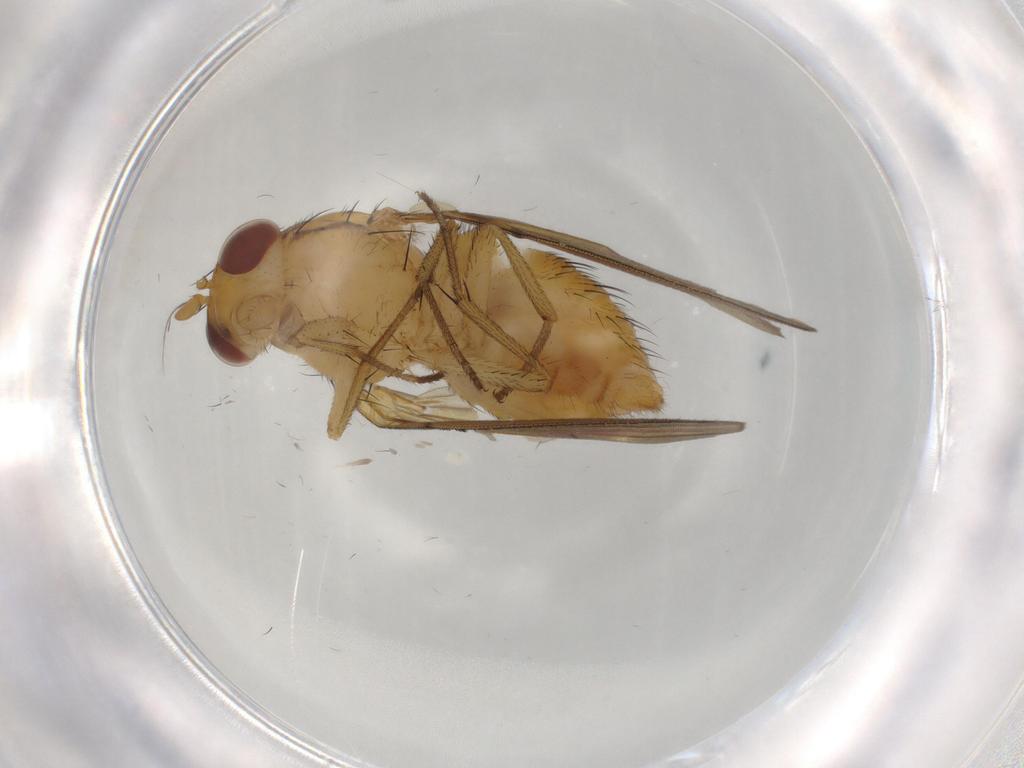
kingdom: Animalia
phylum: Arthropoda
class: Insecta
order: Diptera
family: Lauxaniidae
